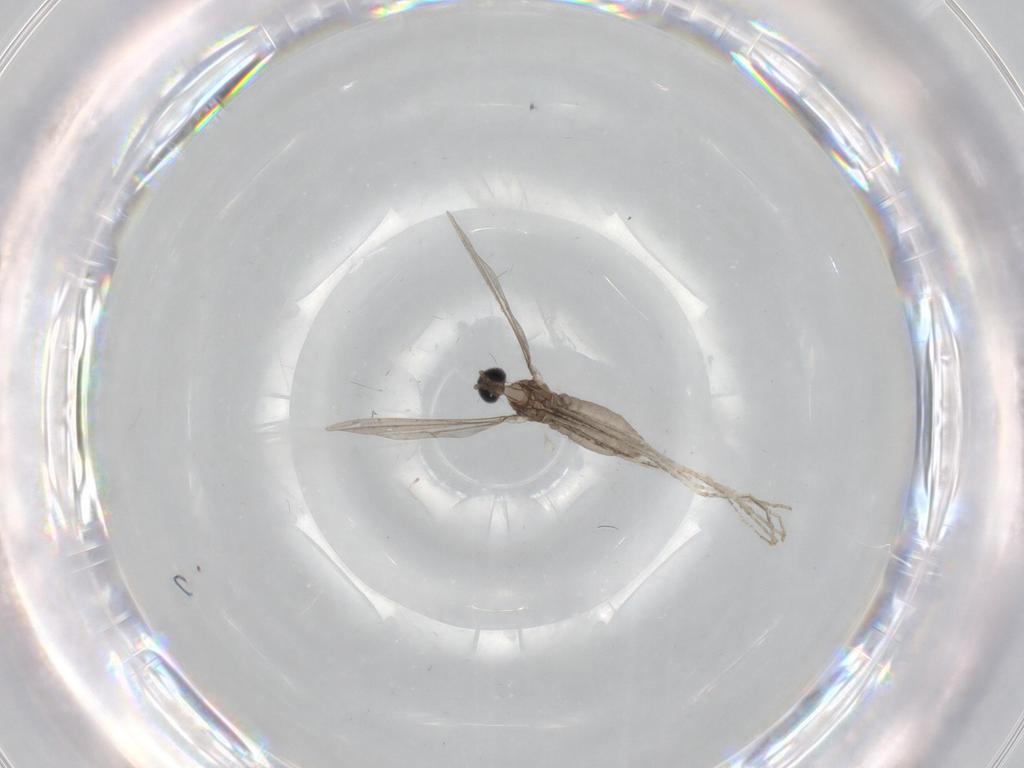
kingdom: Animalia
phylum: Arthropoda
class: Insecta
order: Diptera
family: Cecidomyiidae
